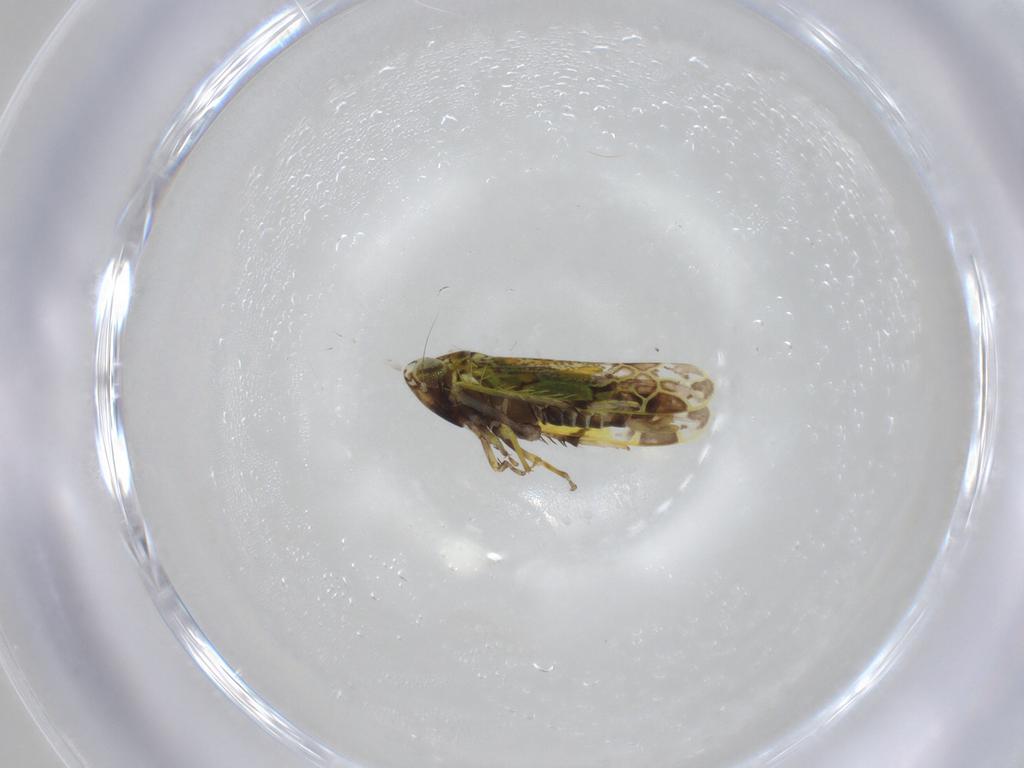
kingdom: Animalia
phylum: Arthropoda
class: Insecta
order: Hemiptera
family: Cicadellidae
